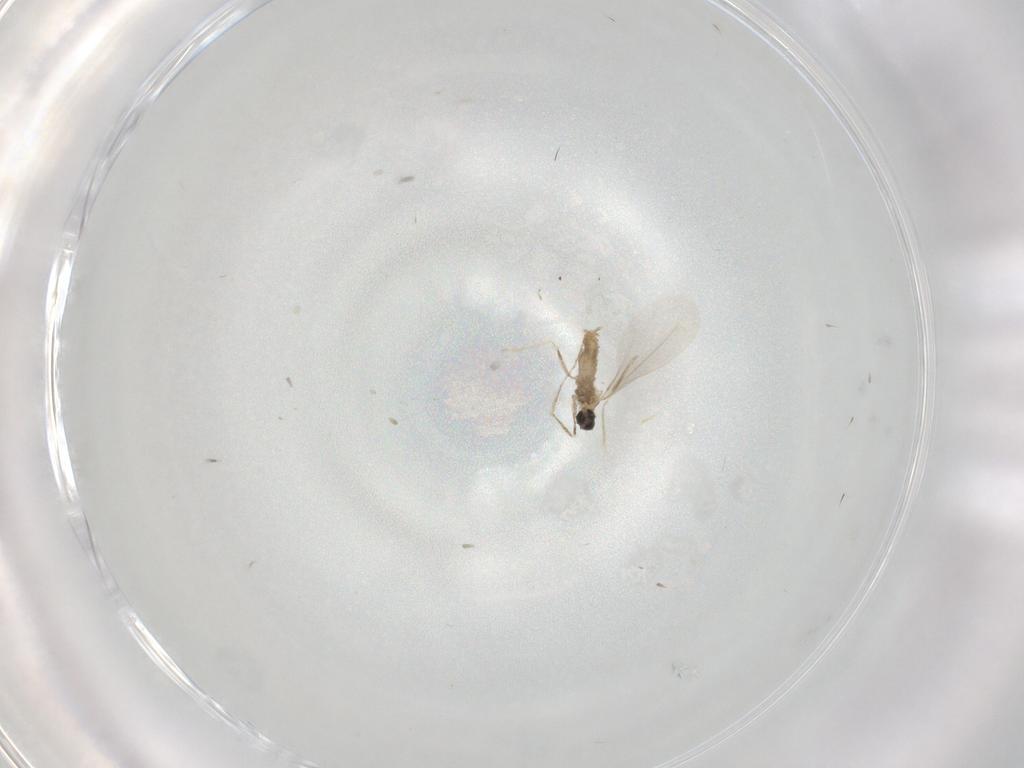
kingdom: Animalia
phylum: Arthropoda
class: Insecta
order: Diptera
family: Cecidomyiidae
